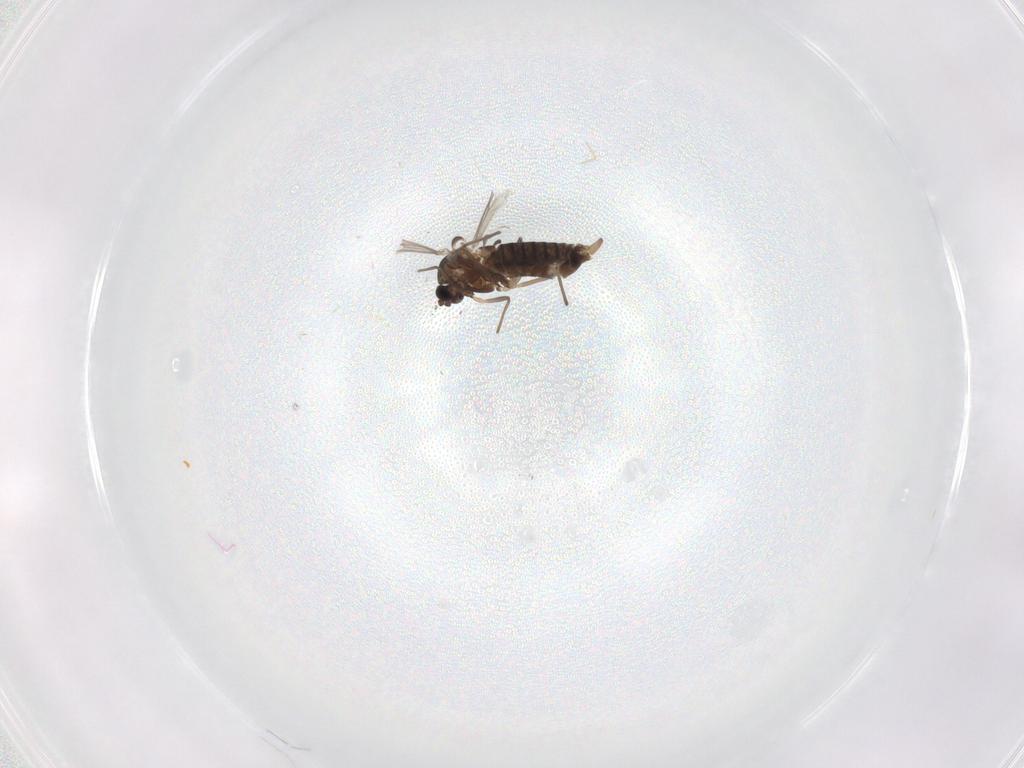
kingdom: Animalia
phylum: Arthropoda
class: Insecta
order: Diptera
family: Chironomidae
